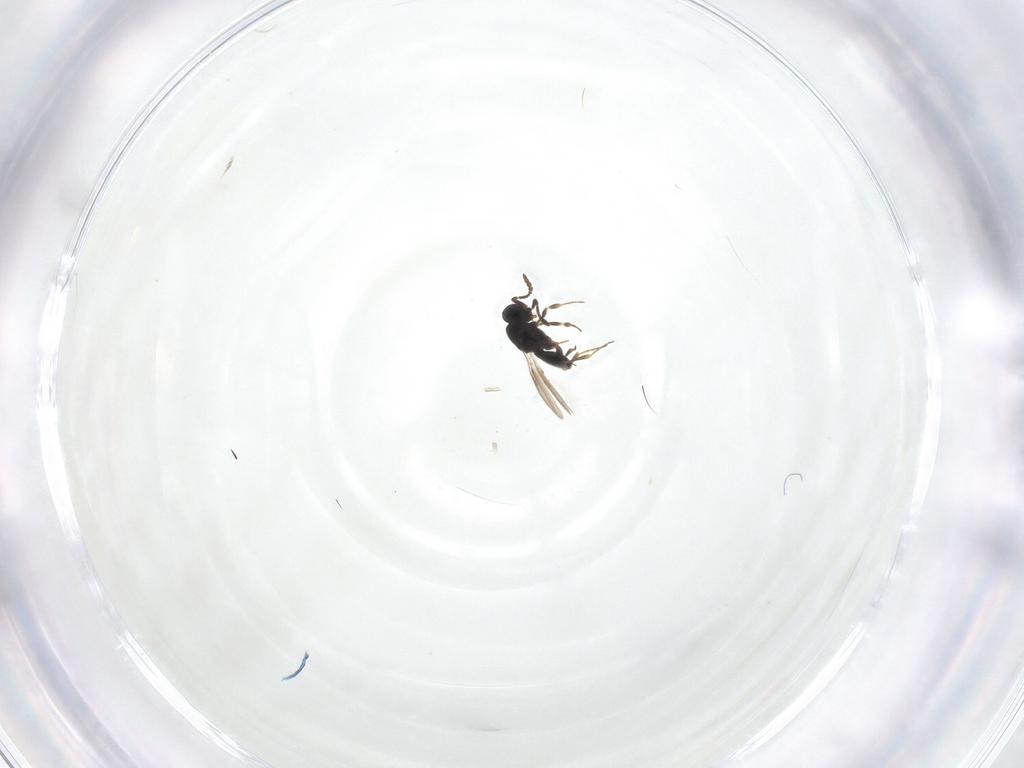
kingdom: Animalia
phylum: Arthropoda
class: Insecta
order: Hymenoptera
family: Scelionidae
